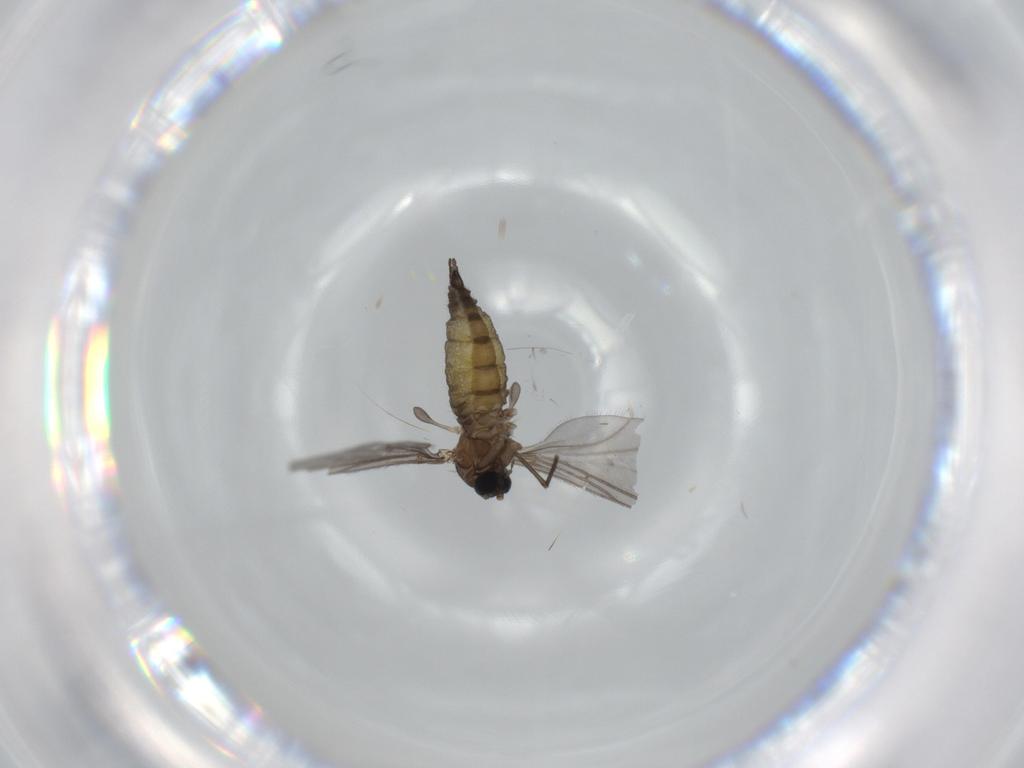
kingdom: Animalia
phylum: Arthropoda
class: Insecta
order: Diptera
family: Sciaridae
